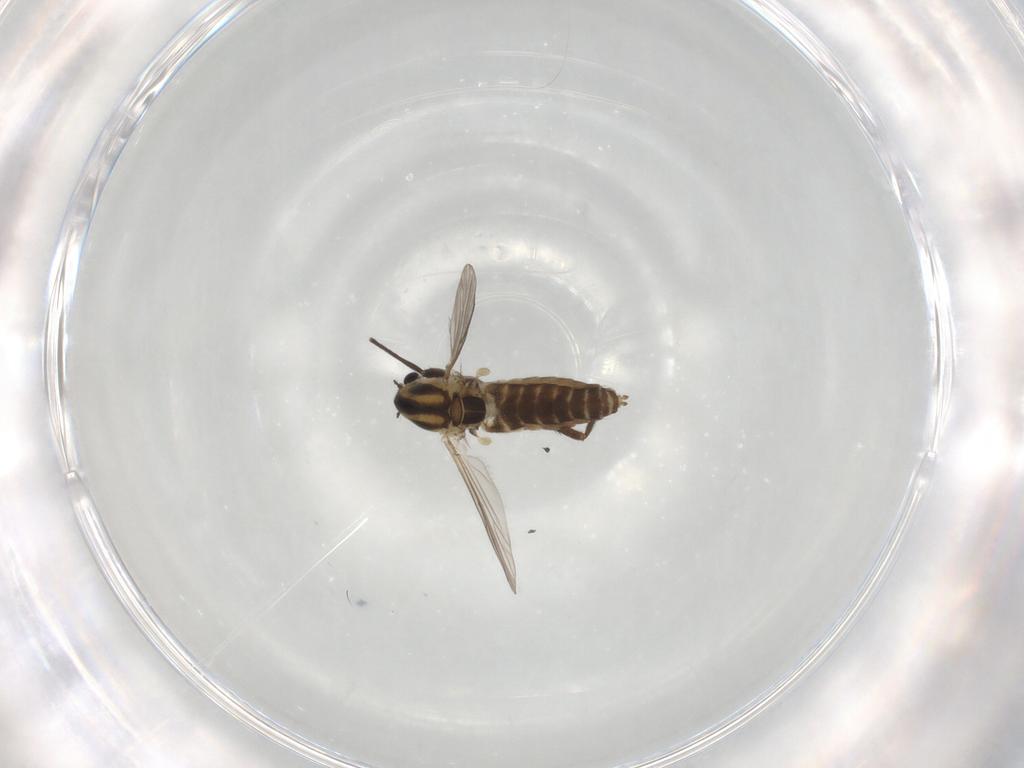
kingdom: Animalia
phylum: Arthropoda
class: Insecta
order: Diptera
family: Chironomidae
